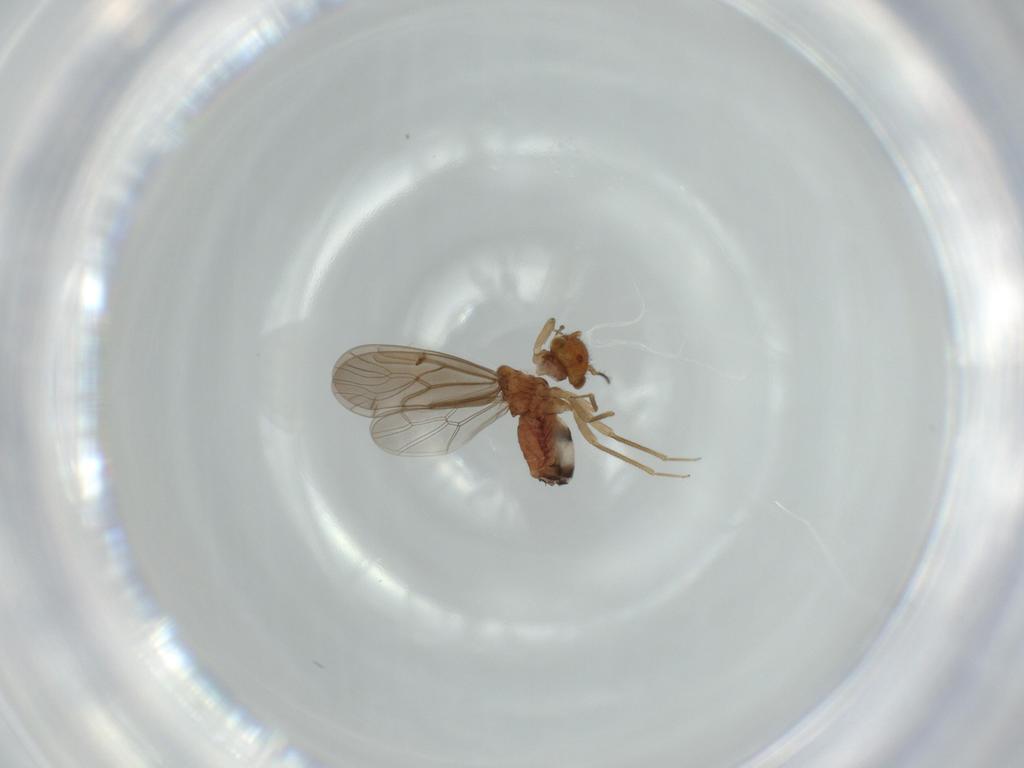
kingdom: Animalia
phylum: Arthropoda
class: Insecta
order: Psocodea
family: Ectopsocidae
